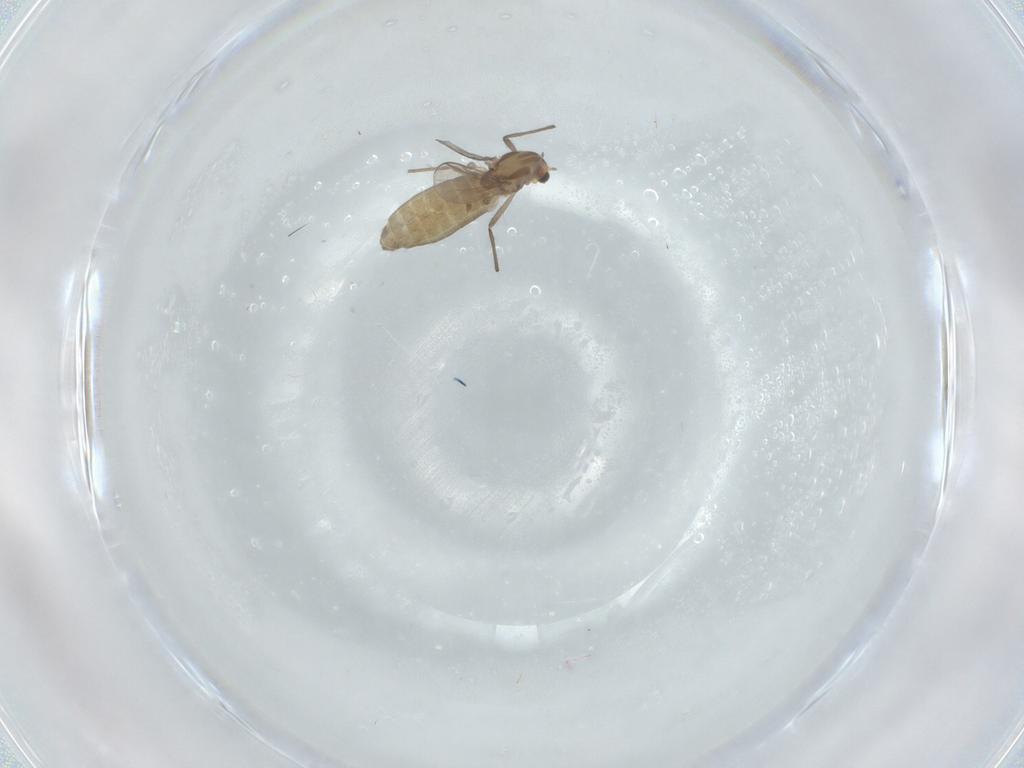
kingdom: Animalia
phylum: Arthropoda
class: Insecta
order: Diptera
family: Chironomidae
